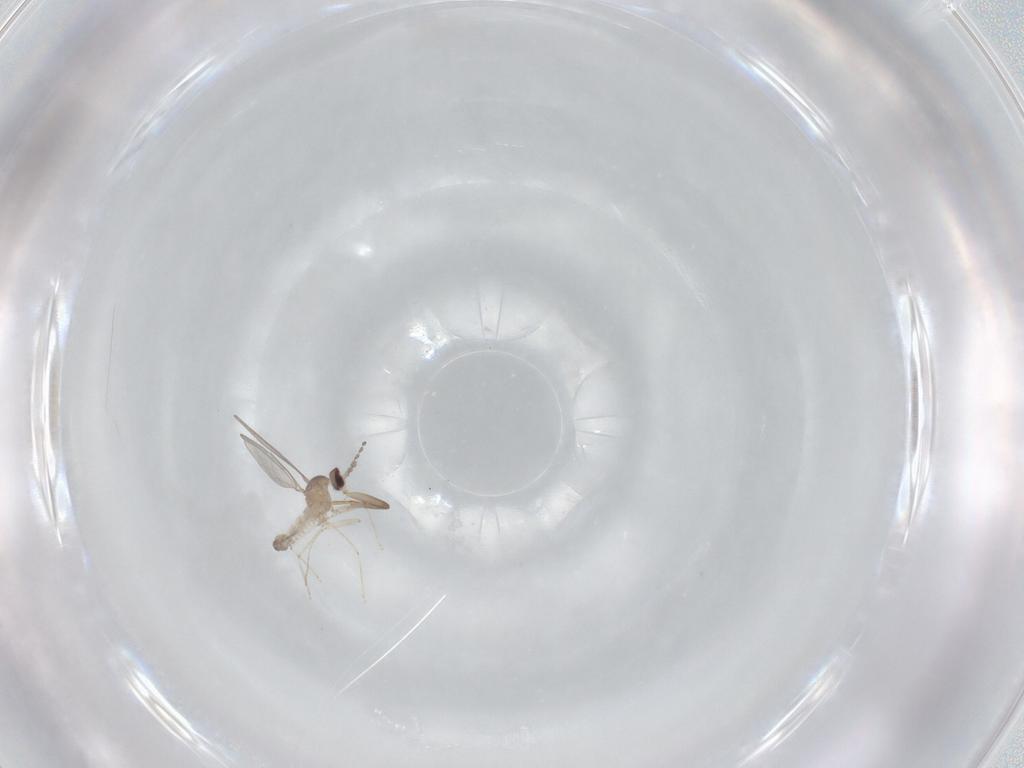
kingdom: Animalia
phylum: Arthropoda
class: Insecta
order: Diptera
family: Cecidomyiidae
